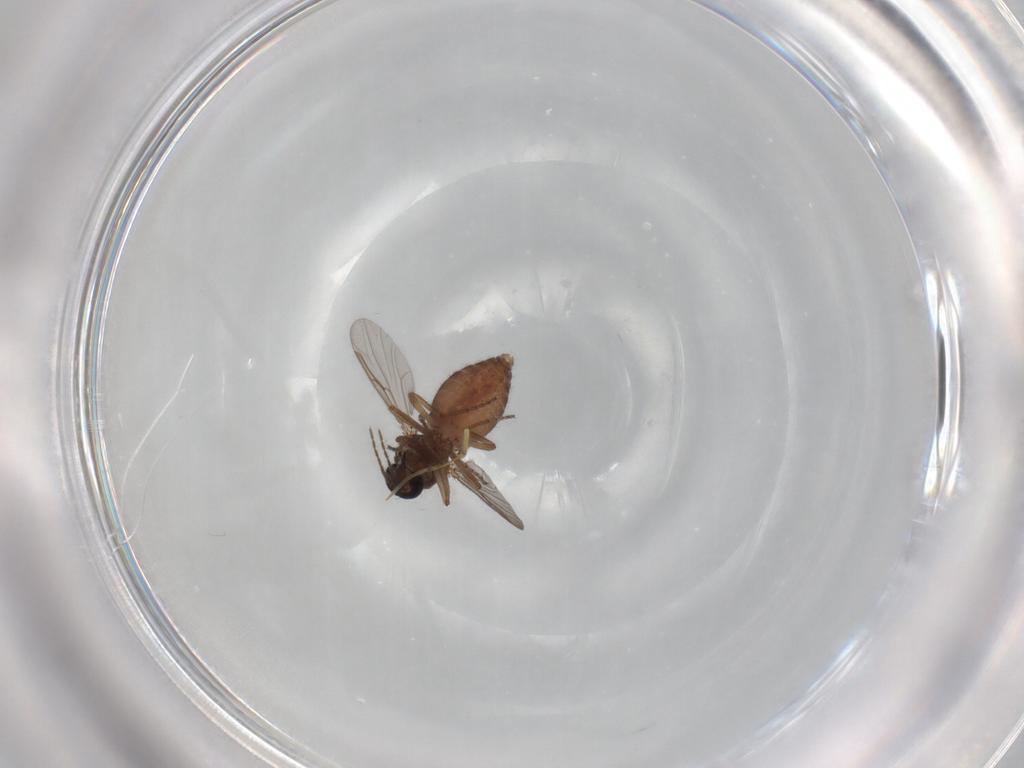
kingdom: Animalia
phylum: Arthropoda
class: Insecta
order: Diptera
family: Ceratopogonidae
